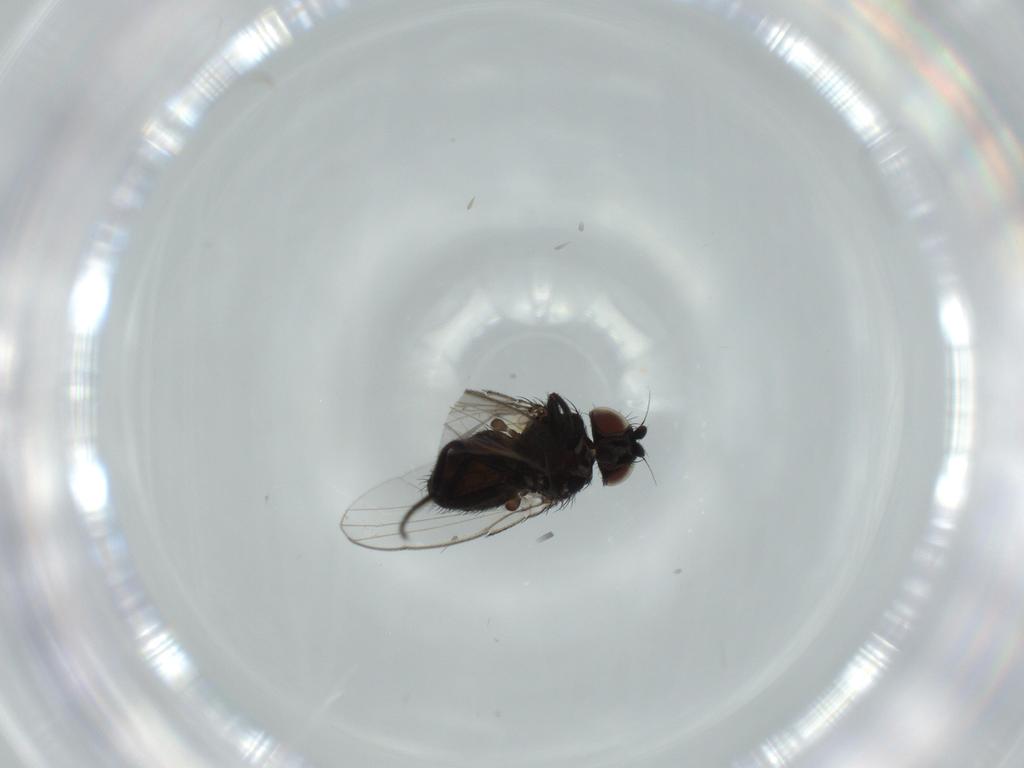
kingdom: Animalia
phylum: Arthropoda
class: Insecta
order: Diptera
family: Milichiidae
